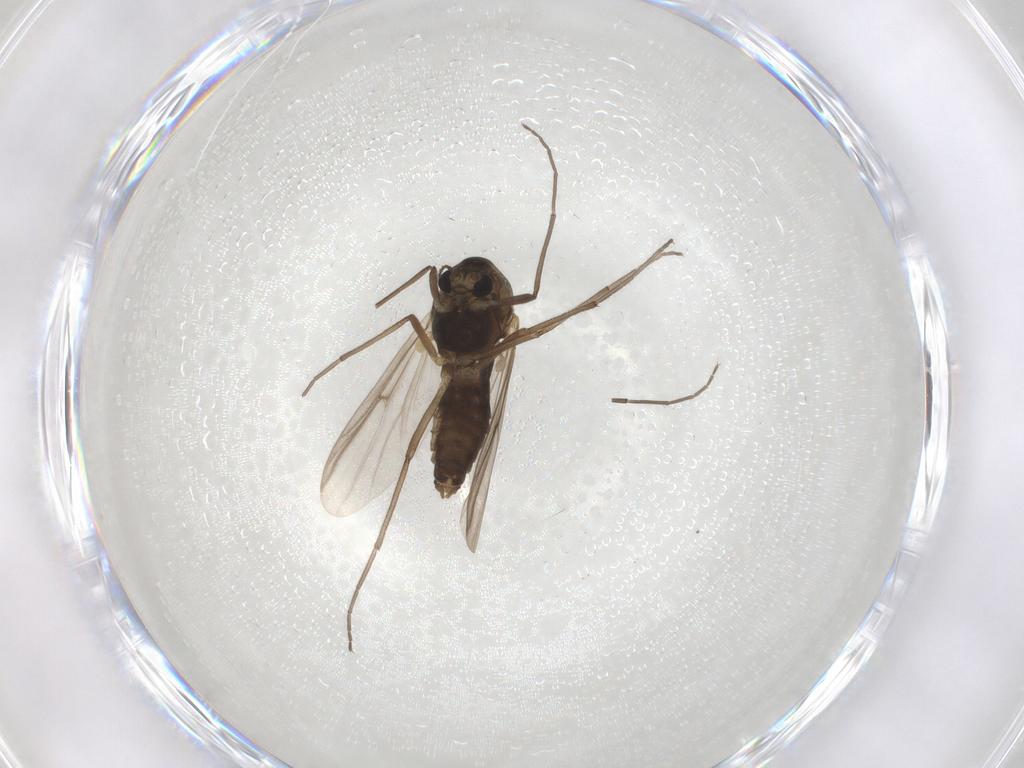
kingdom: Animalia
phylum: Arthropoda
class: Insecta
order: Diptera
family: Chironomidae
